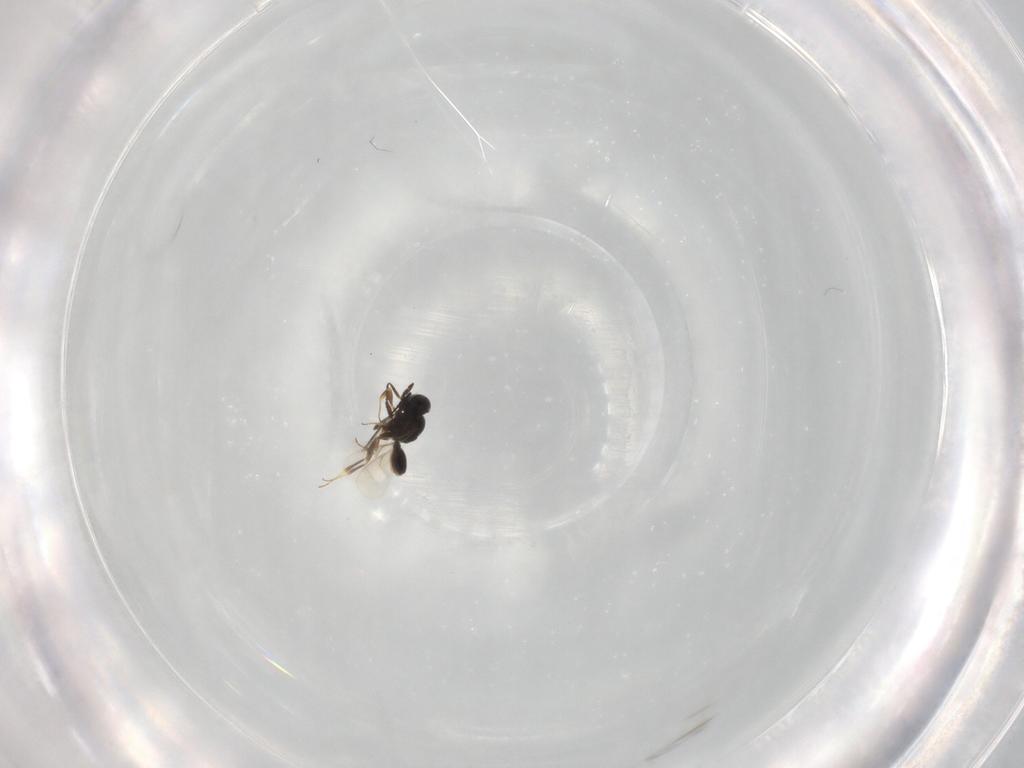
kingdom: Animalia
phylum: Arthropoda
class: Insecta
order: Hymenoptera
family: Scelionidae
